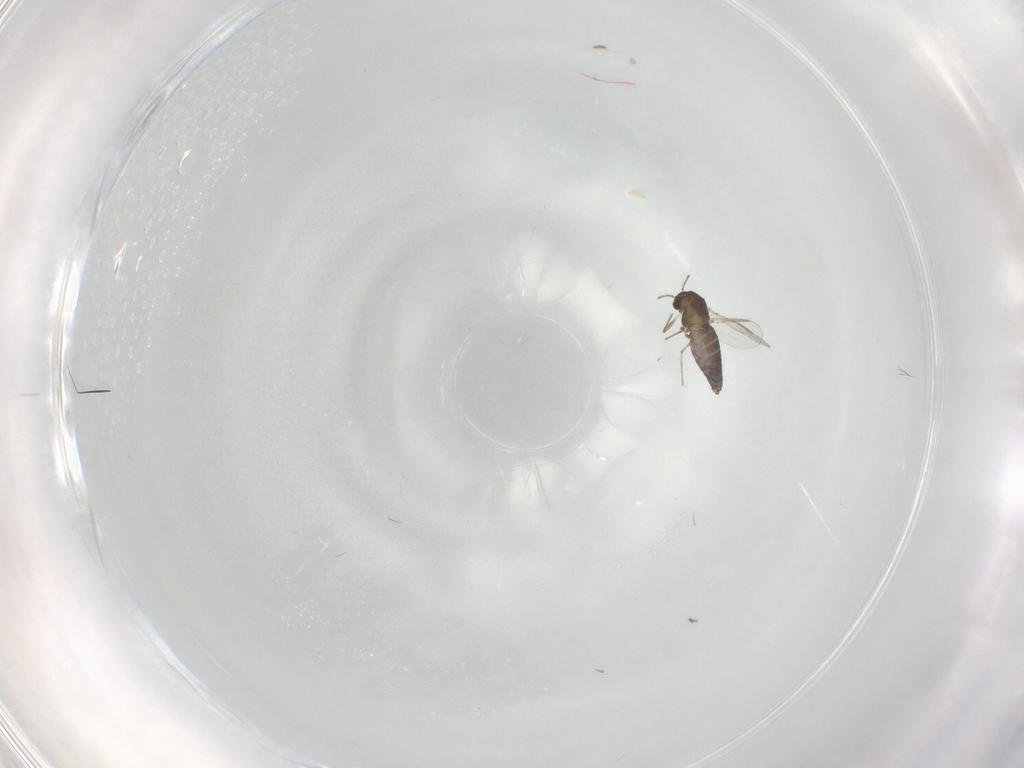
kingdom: Animalia
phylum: Arthropoda
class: Insecta
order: Diptera
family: Chironomidae
